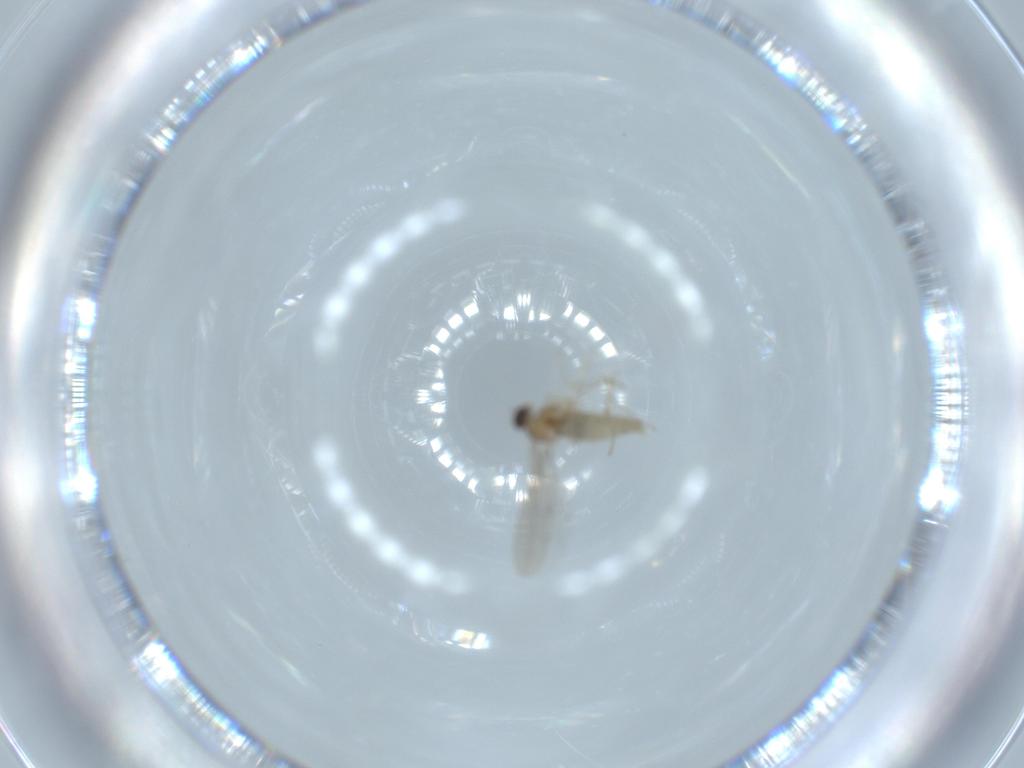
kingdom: Animalia
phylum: Arthropoda
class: Insecta
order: Diptera
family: Cecidomyiidae
